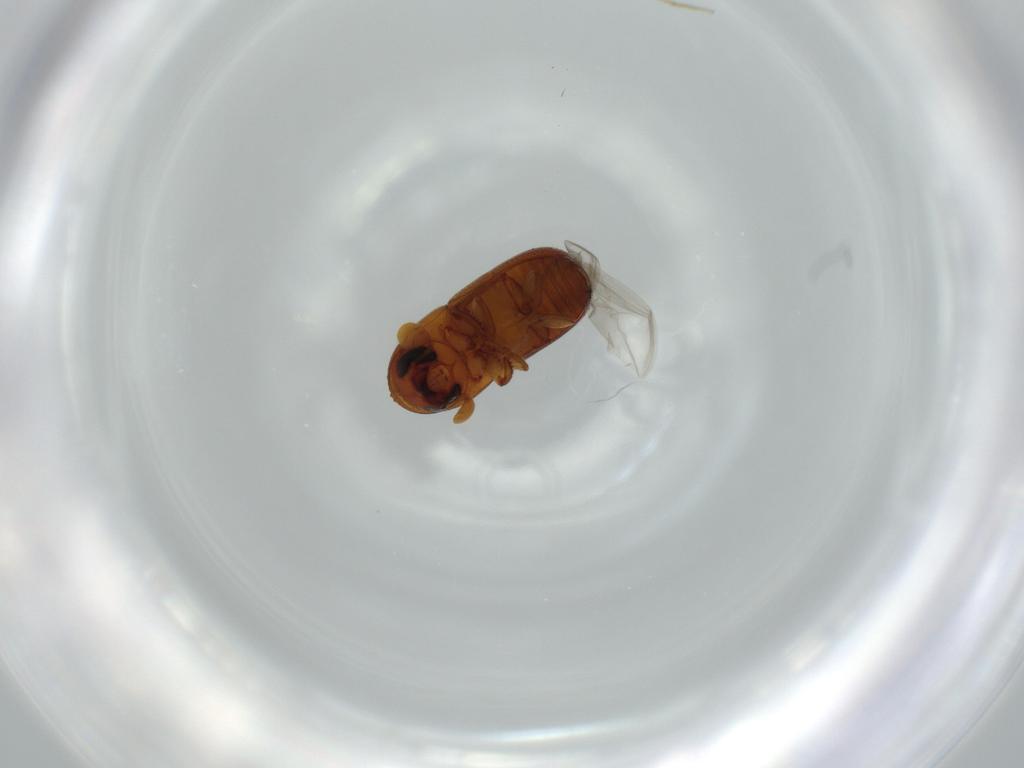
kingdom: Animalia
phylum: Arthropoda
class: Insecta
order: Coleoptera
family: Curculionidae
